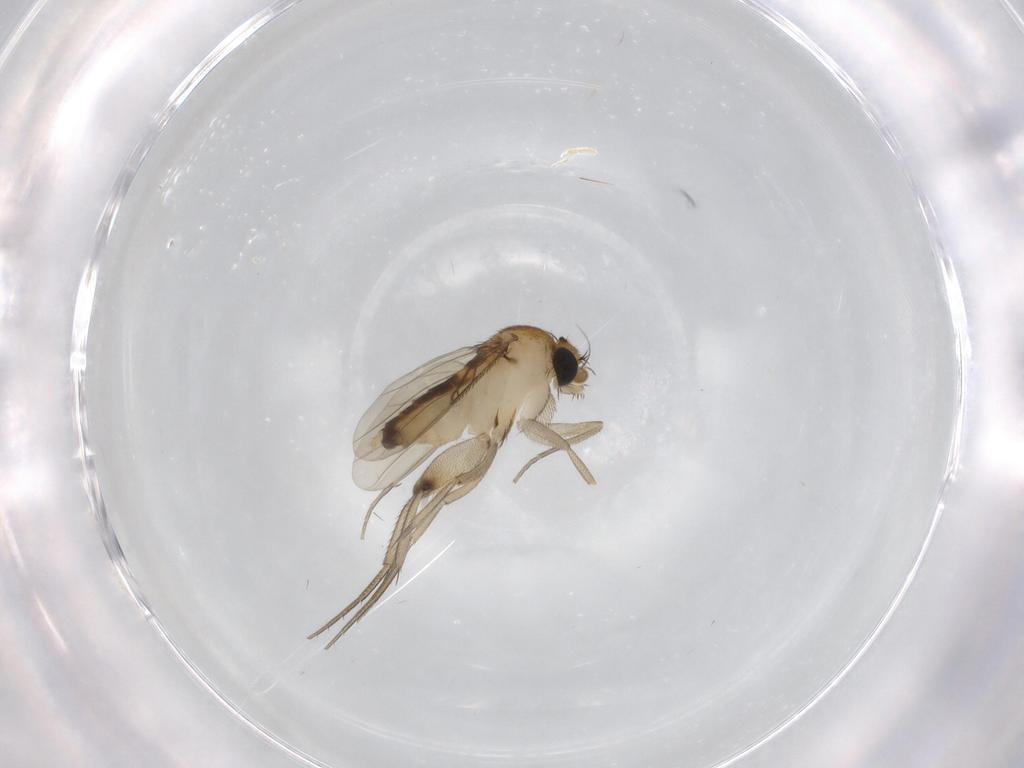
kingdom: Animalia
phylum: Arthropoda
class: Insecta
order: Diptera
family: Phoridae
